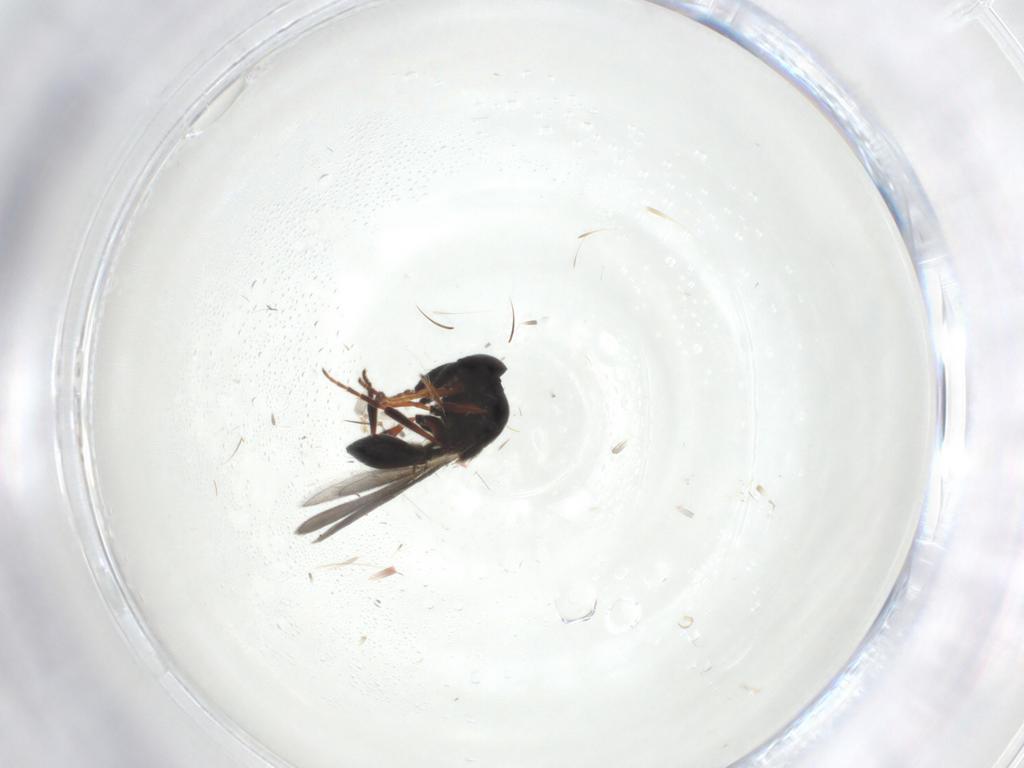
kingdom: Animalia
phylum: Arthropoda
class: Insecta
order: Hymenoptera
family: Platygastridae
